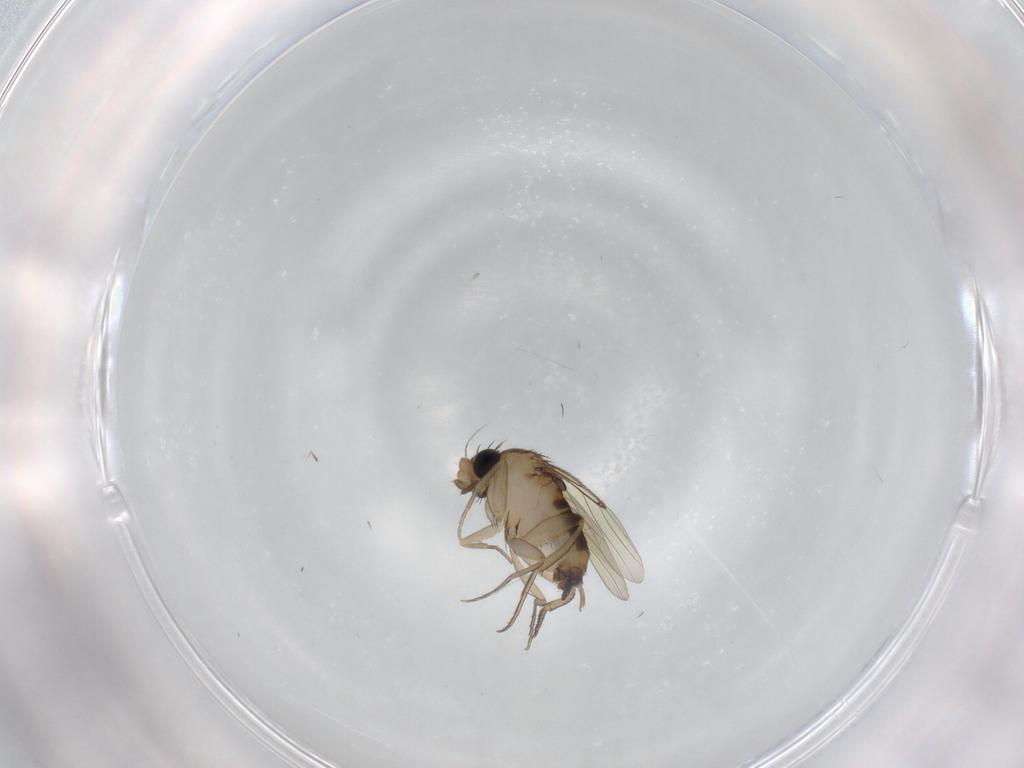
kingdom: Animalia
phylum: Arthropoda
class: Insecta
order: Diptera
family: Phoridae
